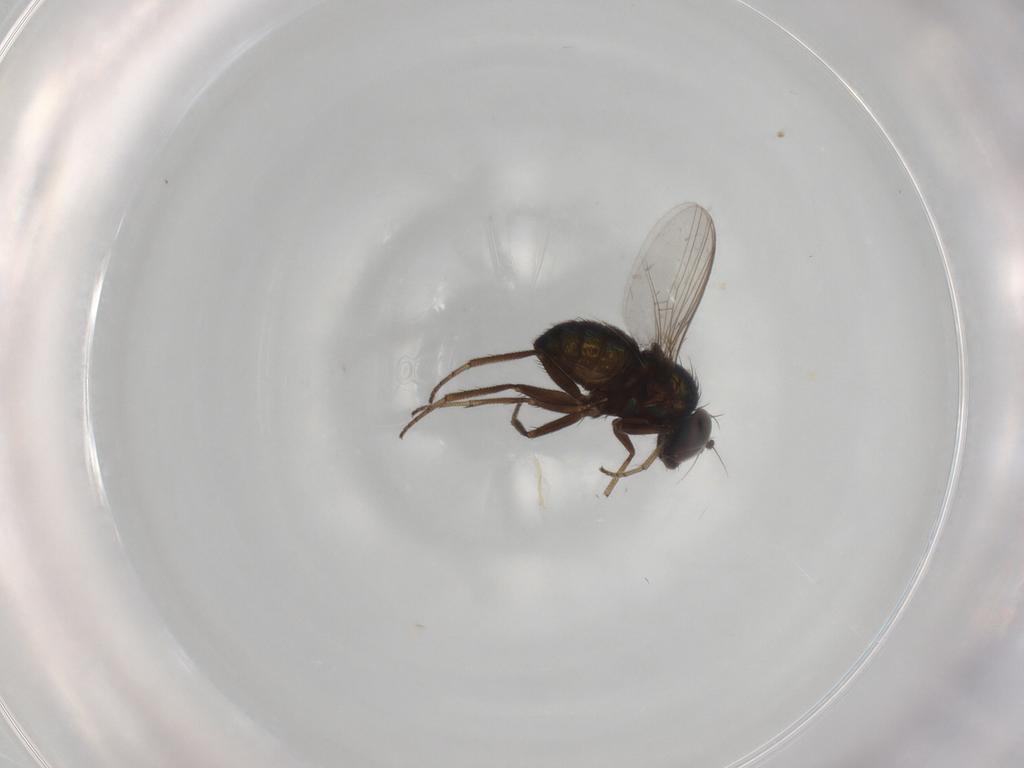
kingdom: Animalia
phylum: Arthropoda
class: Insecta
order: Diptera
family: Dolichopodidae
